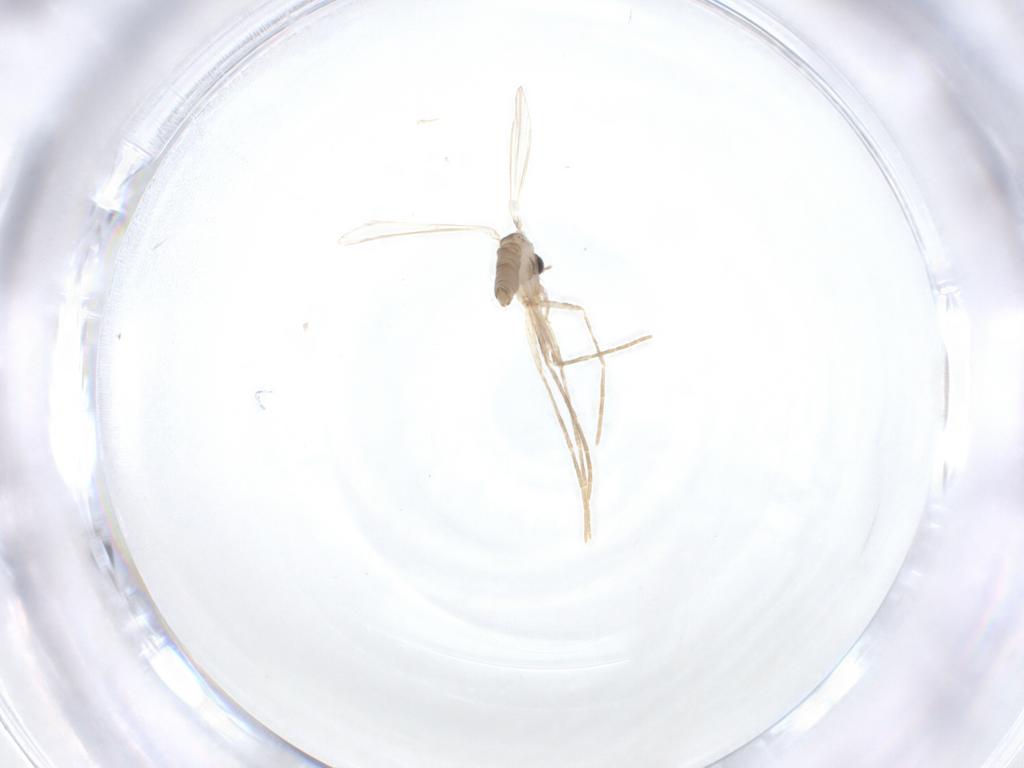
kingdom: Animalia
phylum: Arthropoda
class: Insecta
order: Diptera
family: Psychodidae
